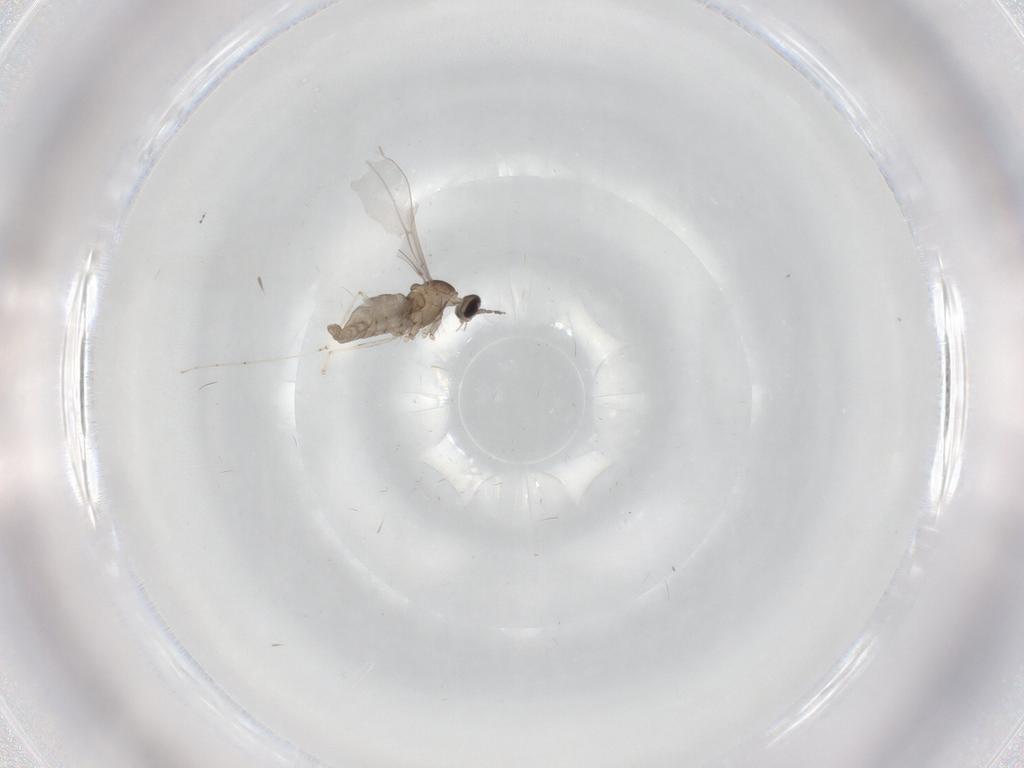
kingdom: Animalia
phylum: Arthropoda
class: Insecta
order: Diptera
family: Cecidomyiidae
